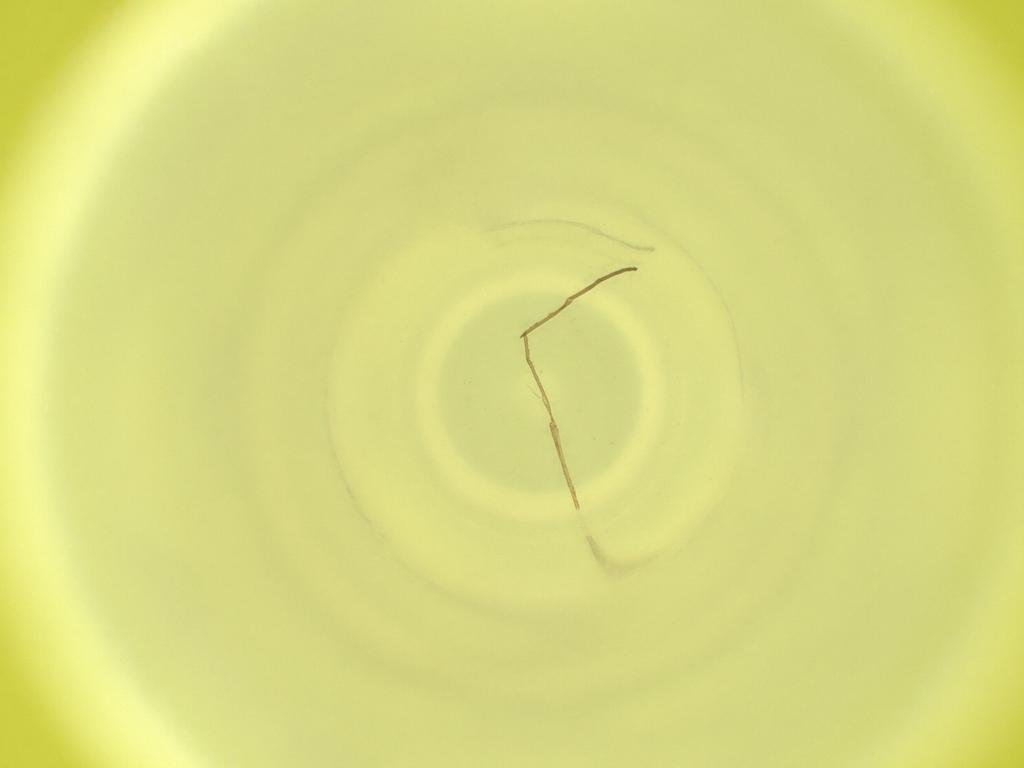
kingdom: Animalia
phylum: Arthropoda
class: Insecta
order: Diptera
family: Cecidomyiidae
